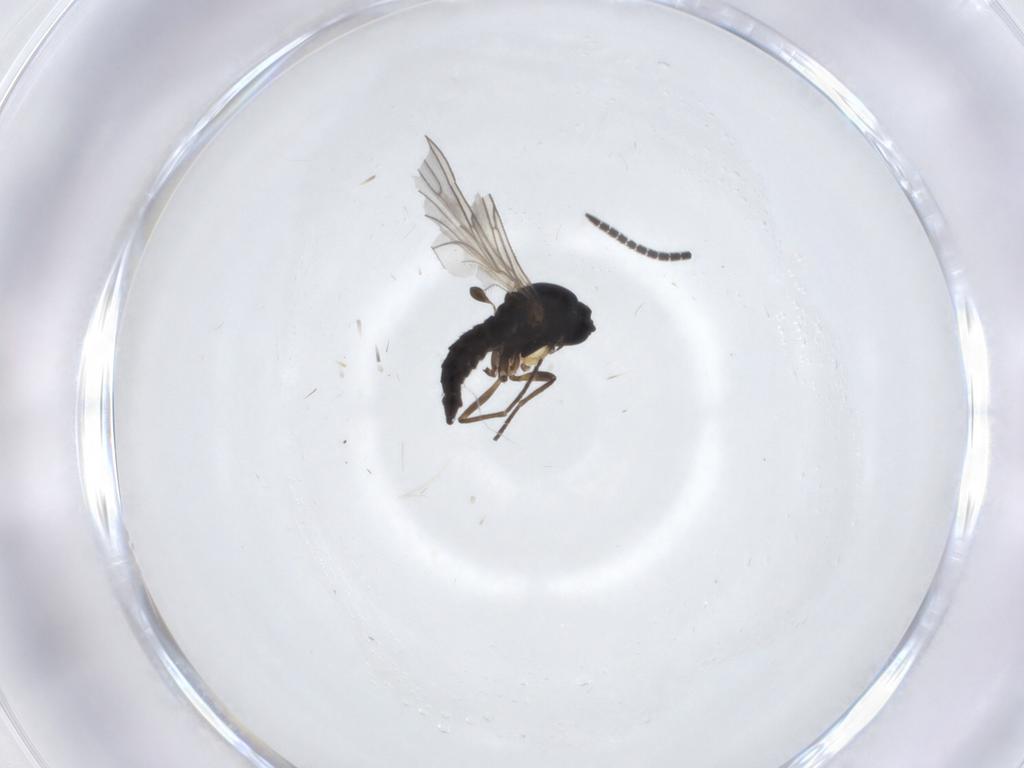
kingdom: Animalia
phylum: Arthropoda
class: Insecta
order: Diptera
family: Sciaridae
